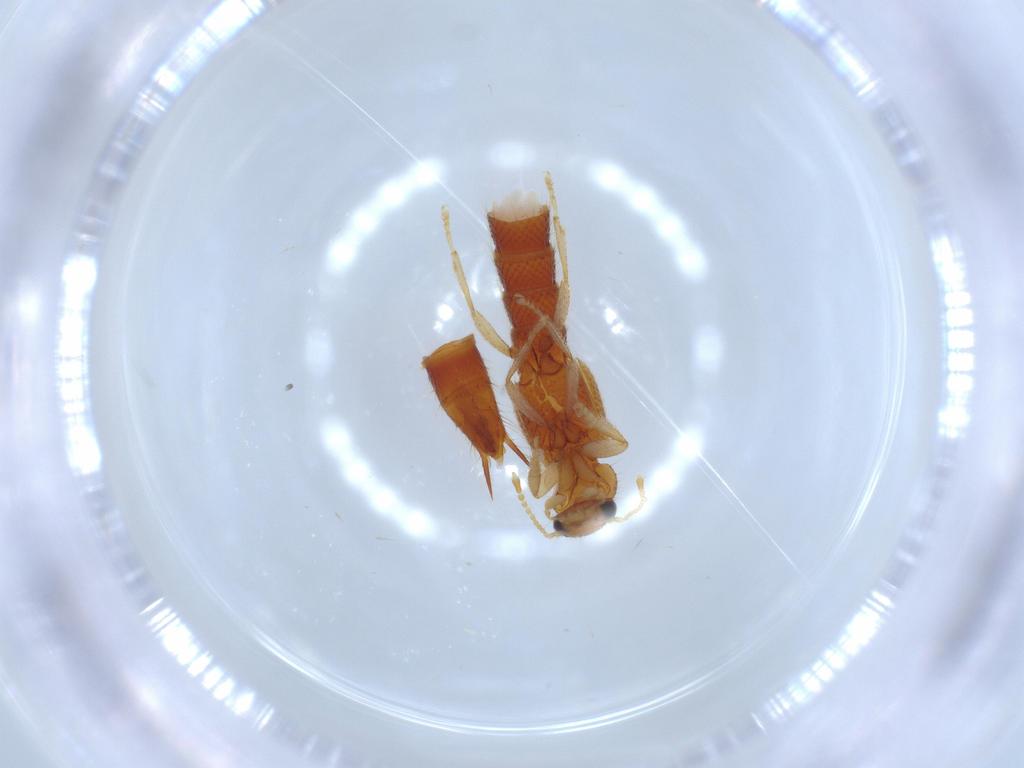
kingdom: Animalia
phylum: Arthropoda
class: Insecta
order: Coleoptera
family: Staphylinidae
